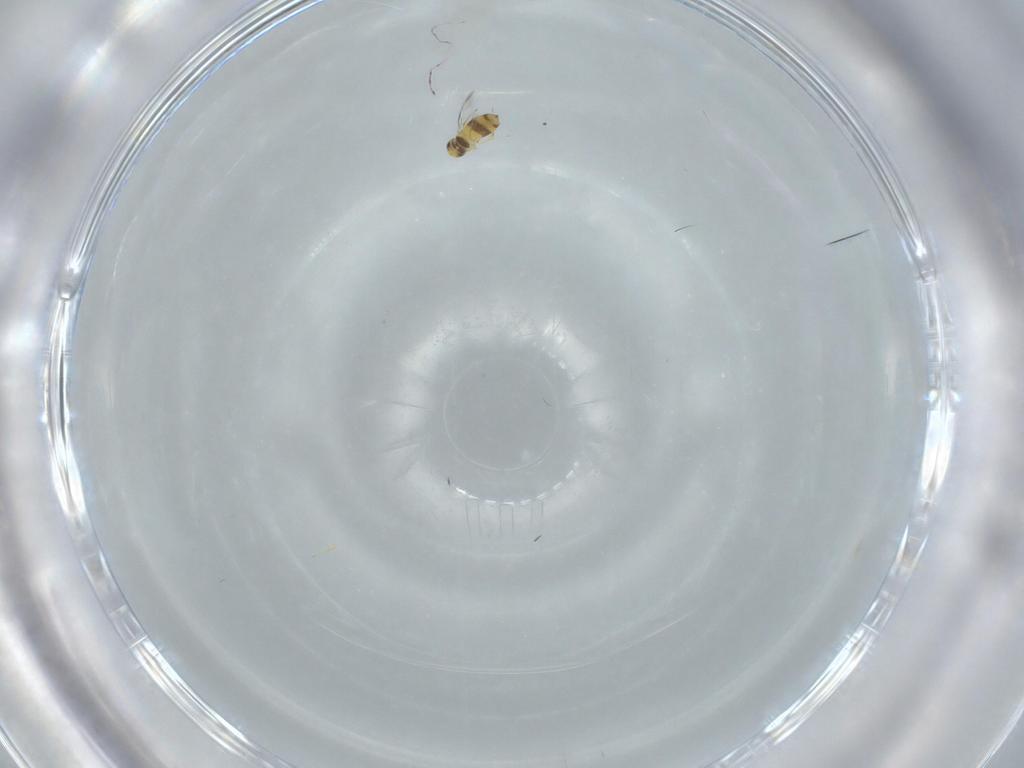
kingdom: Animalia
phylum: Arthropoda
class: Insecta
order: Hymenoptera
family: Signiphoridae
